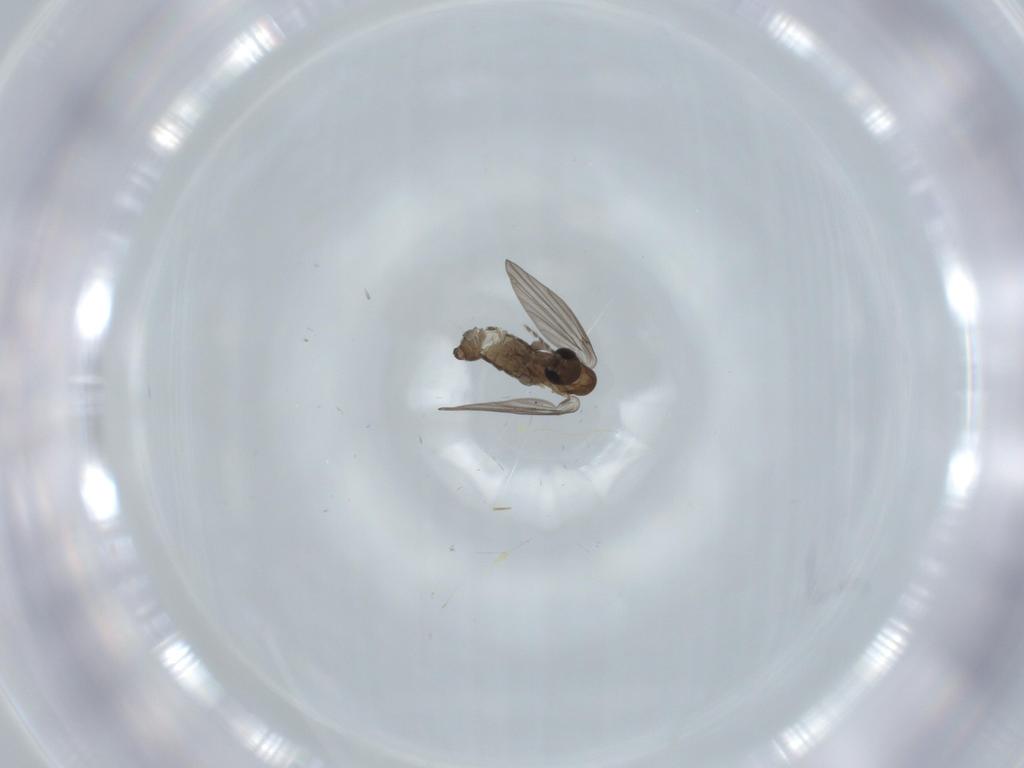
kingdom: Animalia
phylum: Arthropoda
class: Insecta
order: Diptera
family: Psychodidae
